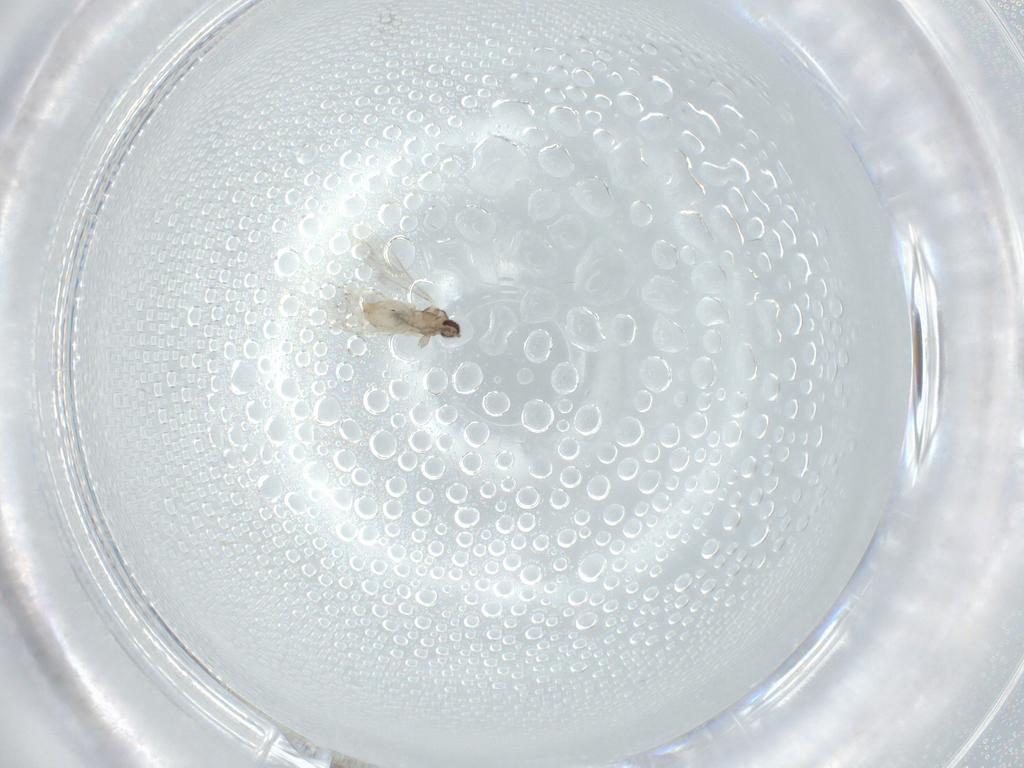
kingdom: Animalia
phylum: Arthropoda
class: Insecta
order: Diptera
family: Cecidomyiidae
